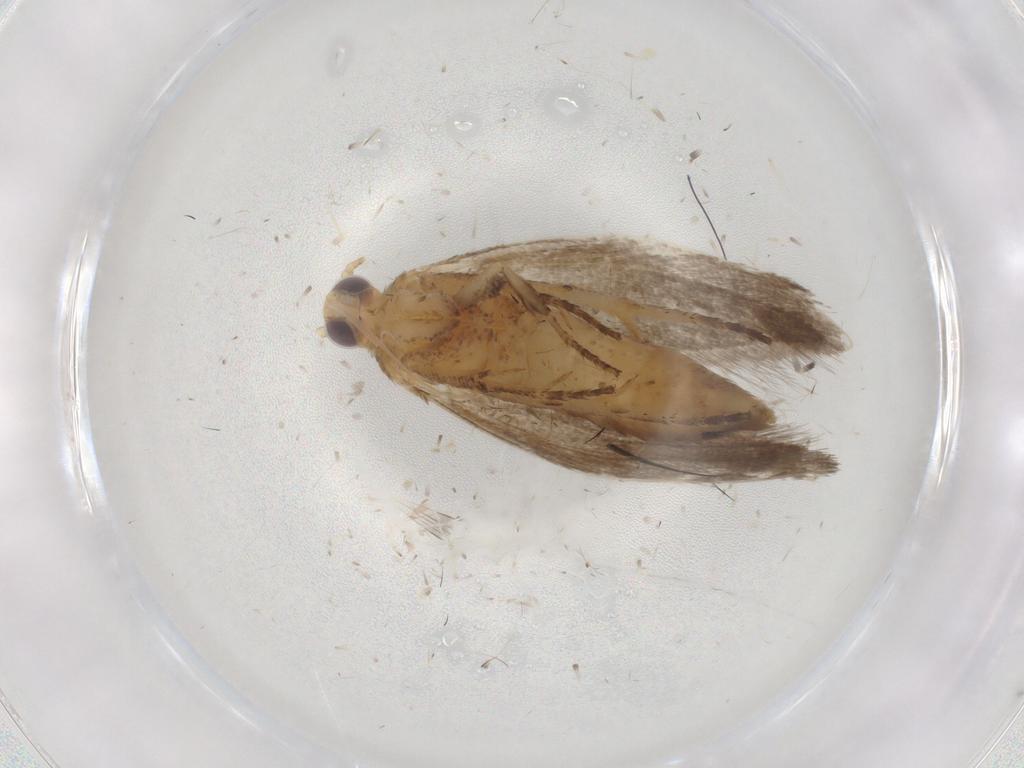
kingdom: Animalia
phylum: Arthropoda
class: Insecta
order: Lepidoptera
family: Plutellidae
